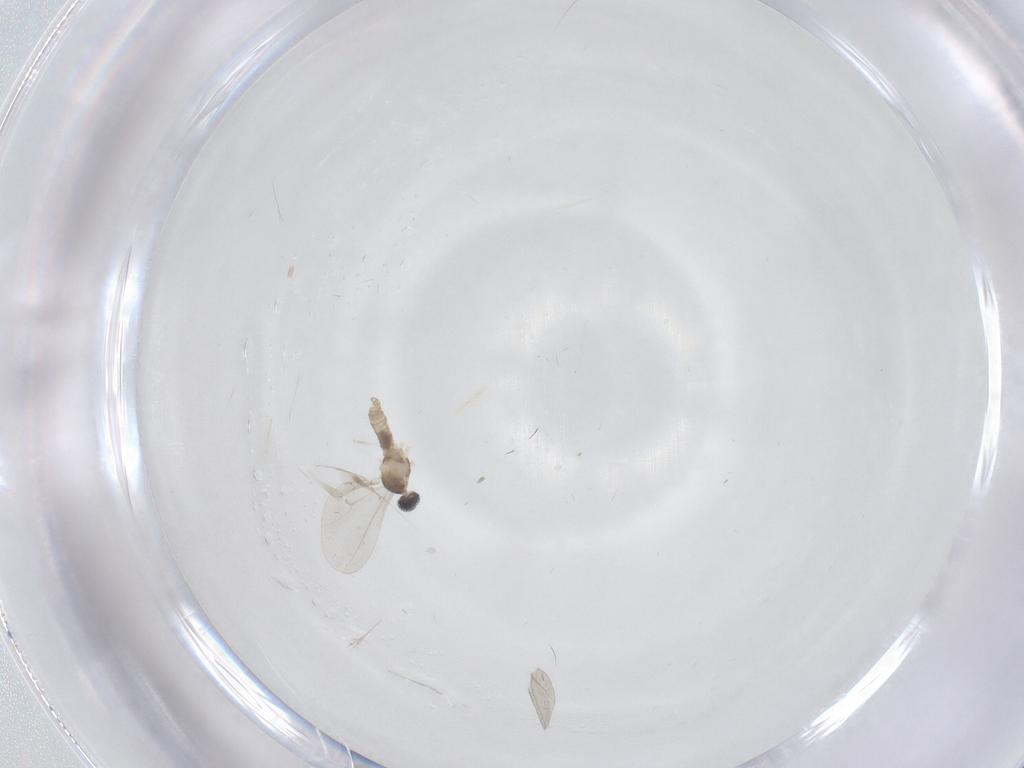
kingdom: Animalia
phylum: Arthropoda
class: Insecta
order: Diptera
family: Cecidomyiidae
